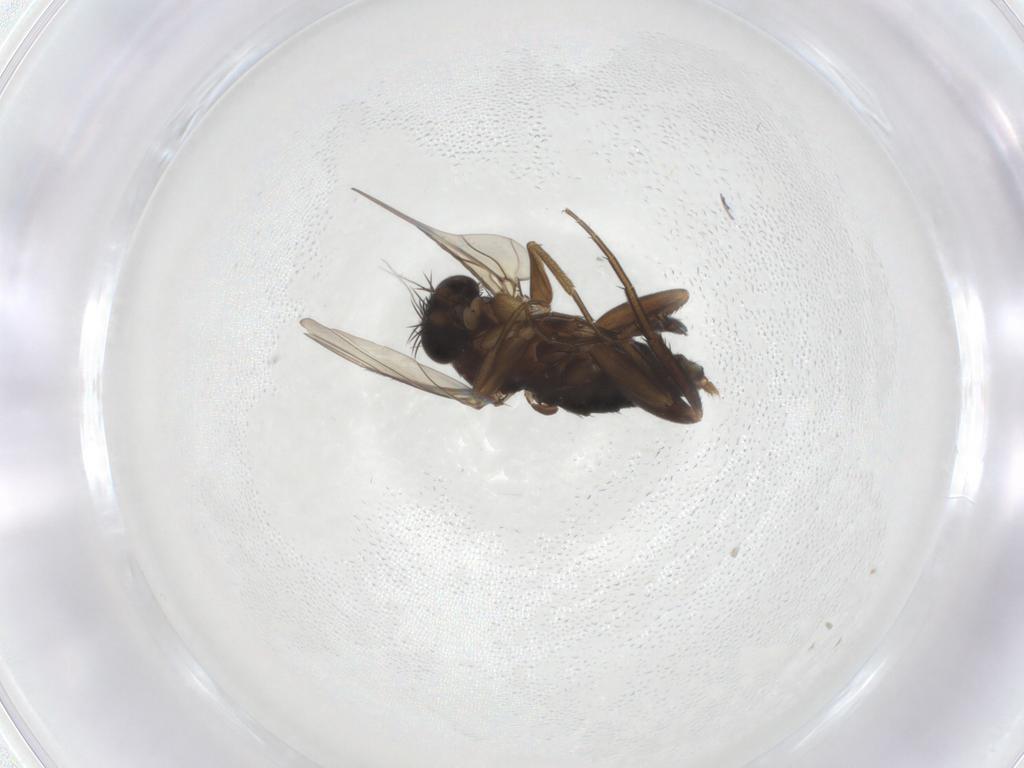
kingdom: Animalia
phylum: Arthropoda
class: Insecta
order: Diptera
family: Phoridae
